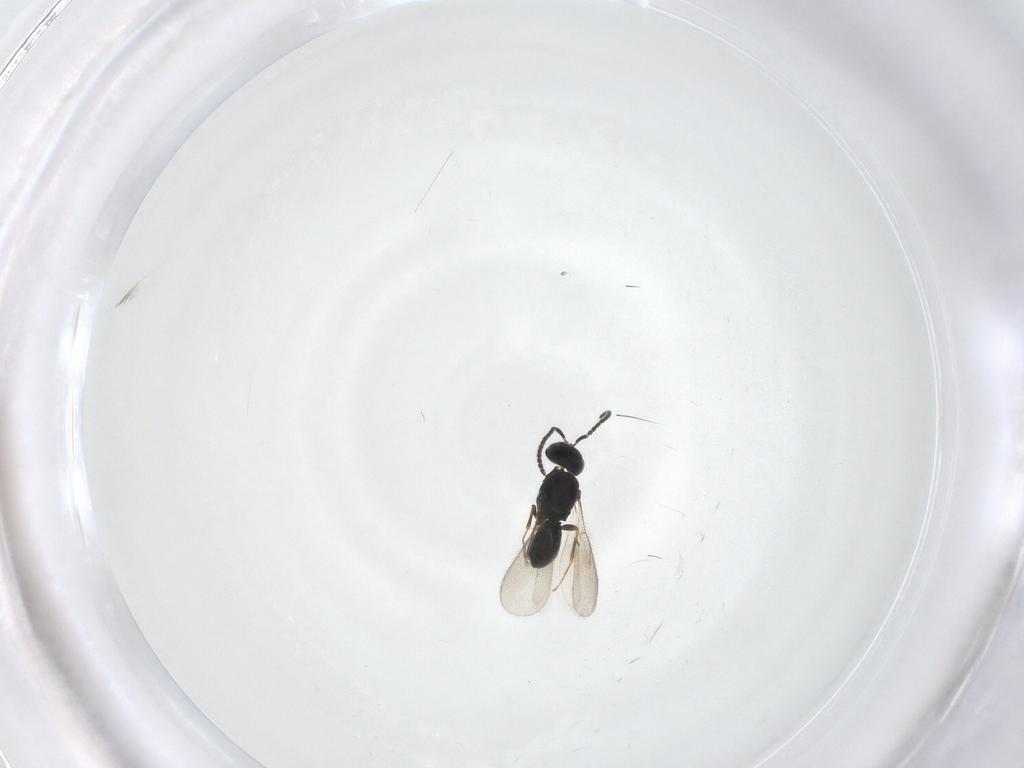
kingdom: Animalia
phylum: Arthropoda
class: Insecta
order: Hymenoptera
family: Scelionidae
